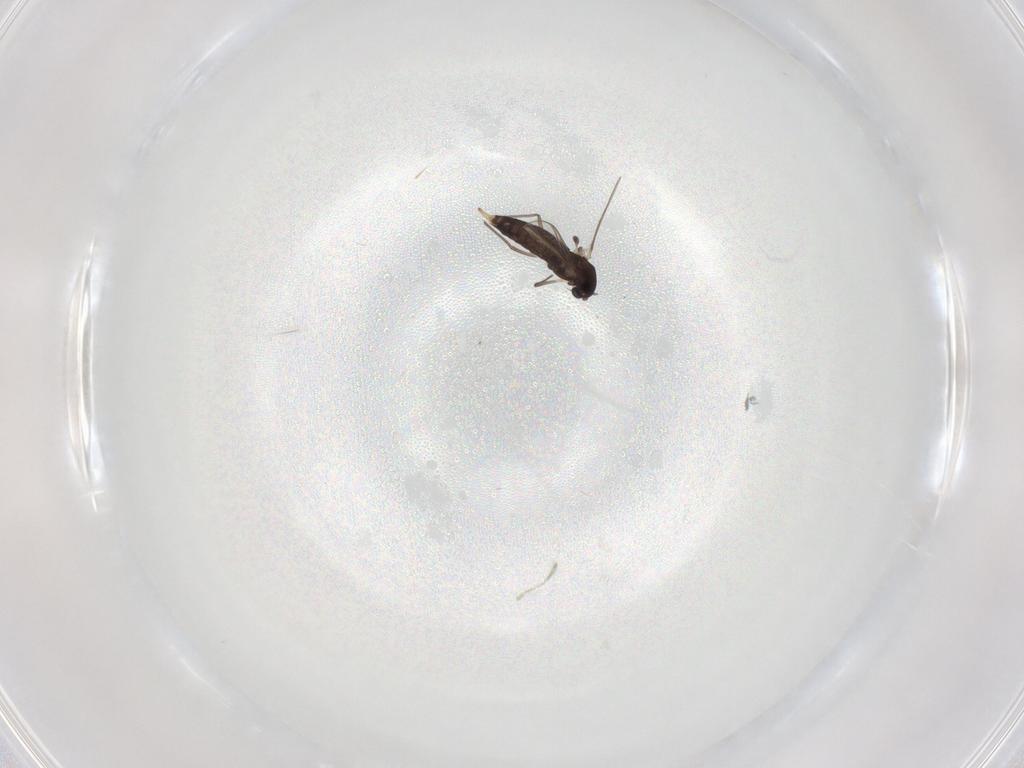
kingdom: Animalia
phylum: Arthropoda
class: Insecta
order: Diptera
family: Chironomidae
